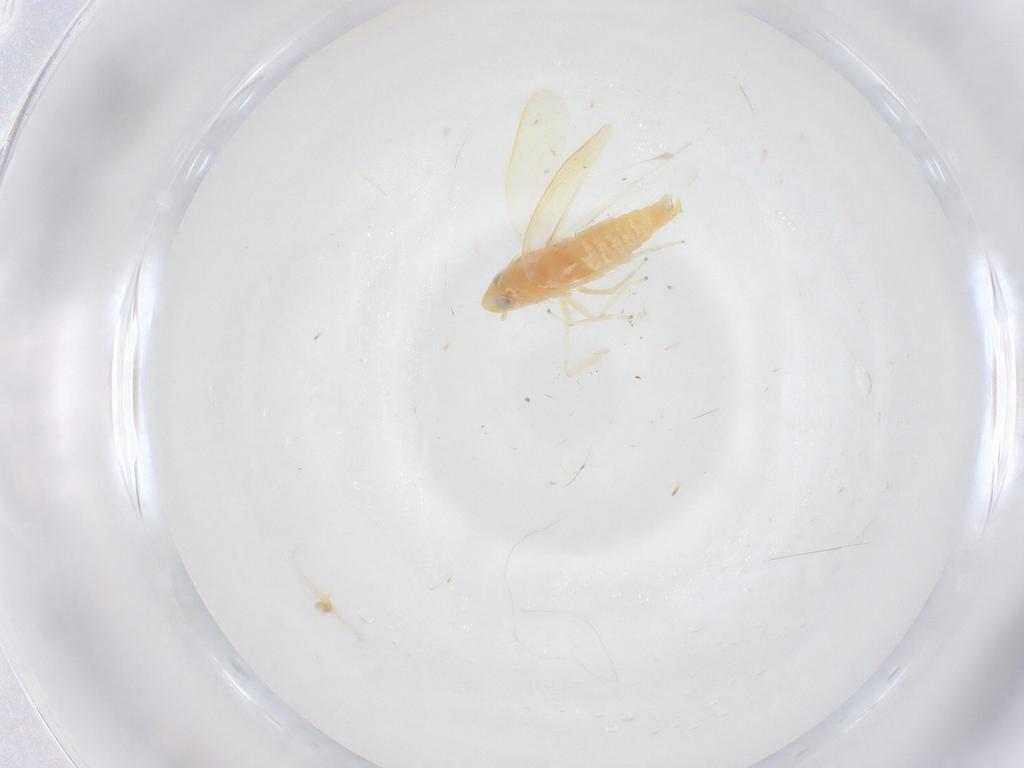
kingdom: Animalia
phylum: Arthropoda
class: Insecta
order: Hemiptera
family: Cicadellidae
